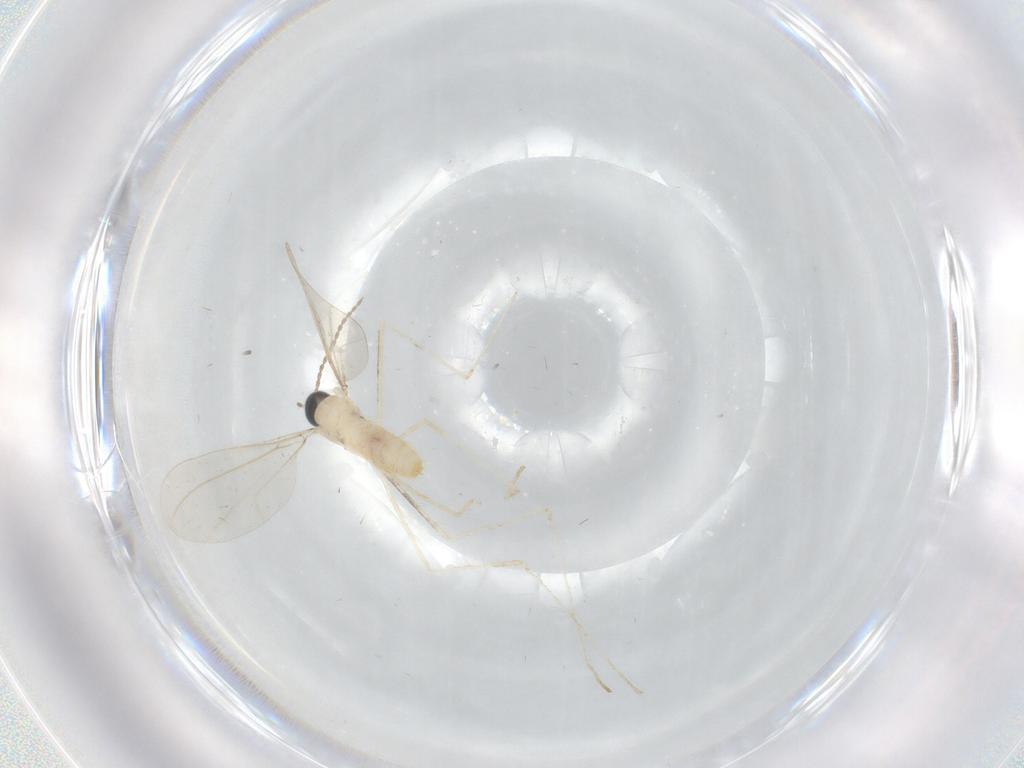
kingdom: Animalia
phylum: Arthropoda
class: Insecta
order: Diptera
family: Cecidomyiidae
